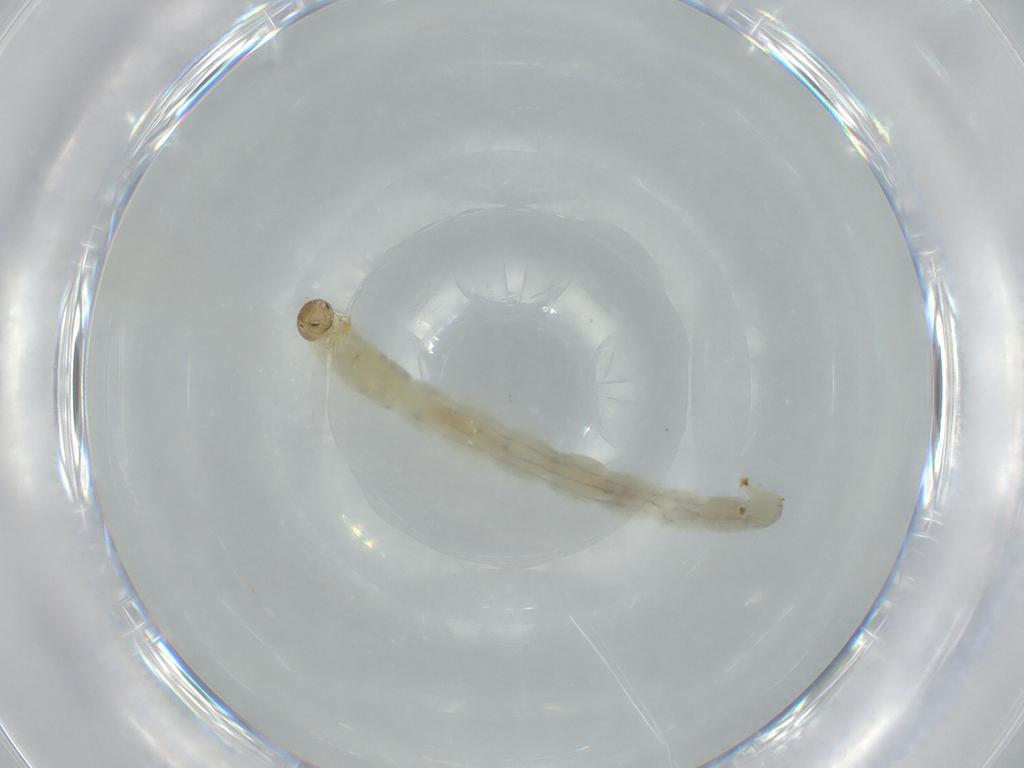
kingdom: Animalia
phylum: Arthropoda
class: Insecta
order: Diptera
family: Chironomidae
